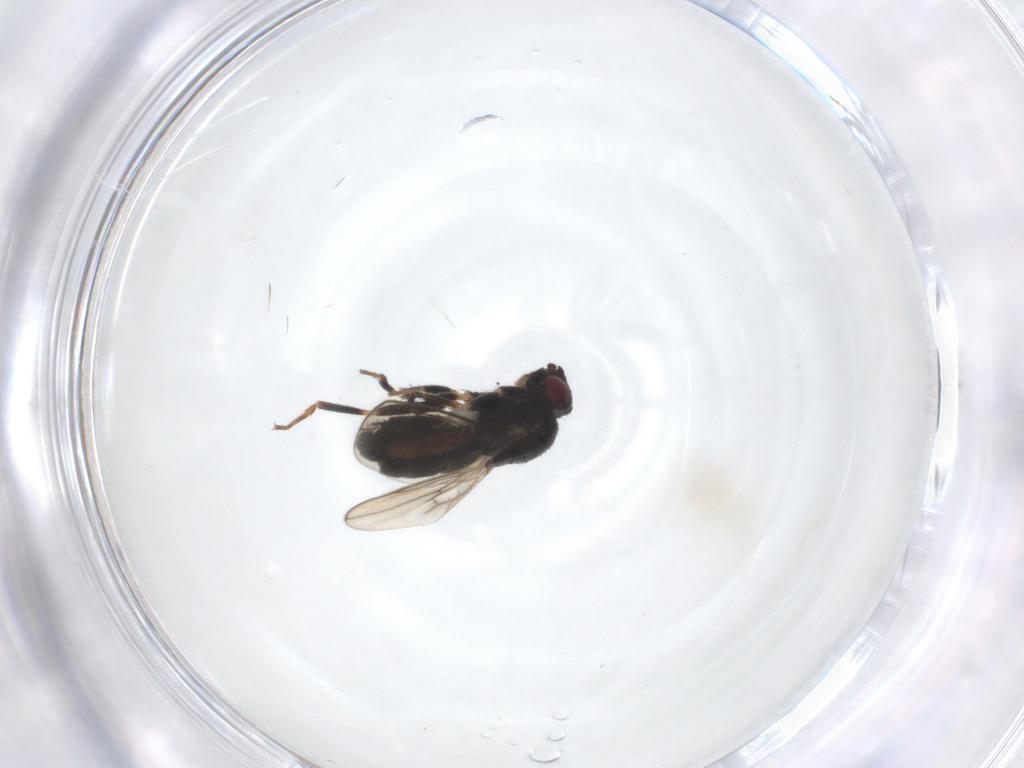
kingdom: Animalia
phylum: Arthropoda
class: Insecta
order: Diptera
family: Sphaeroceridae
